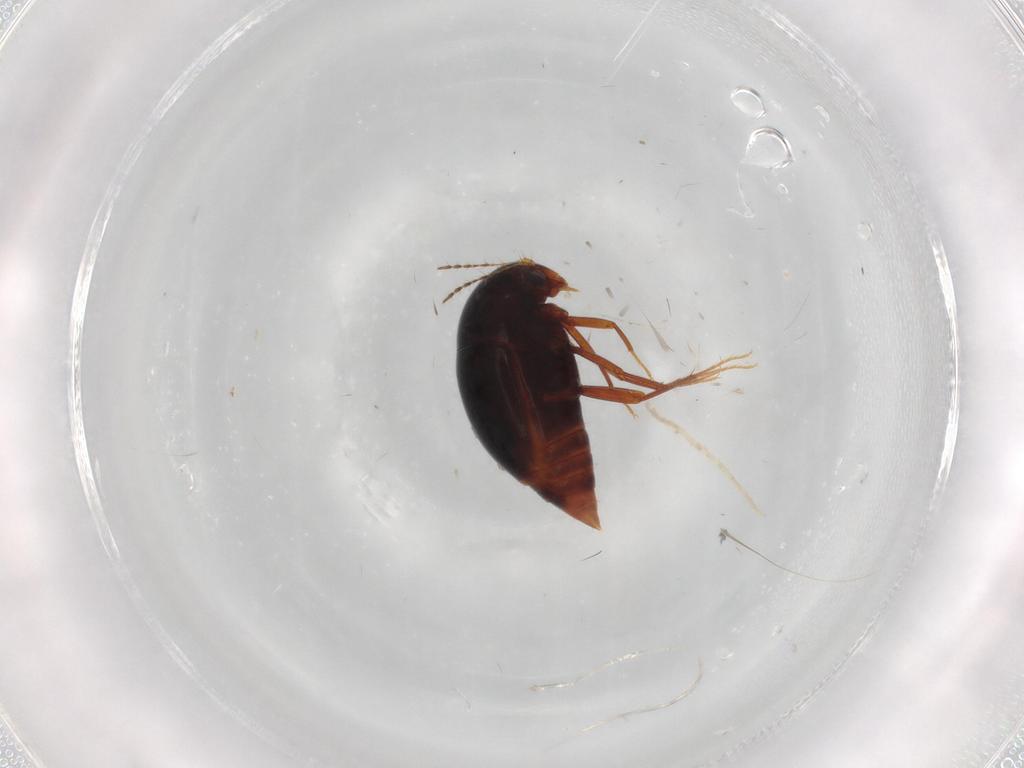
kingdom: Animalia
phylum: Arthropoda
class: Insecta
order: Coleoptera
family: Staphylinidae
